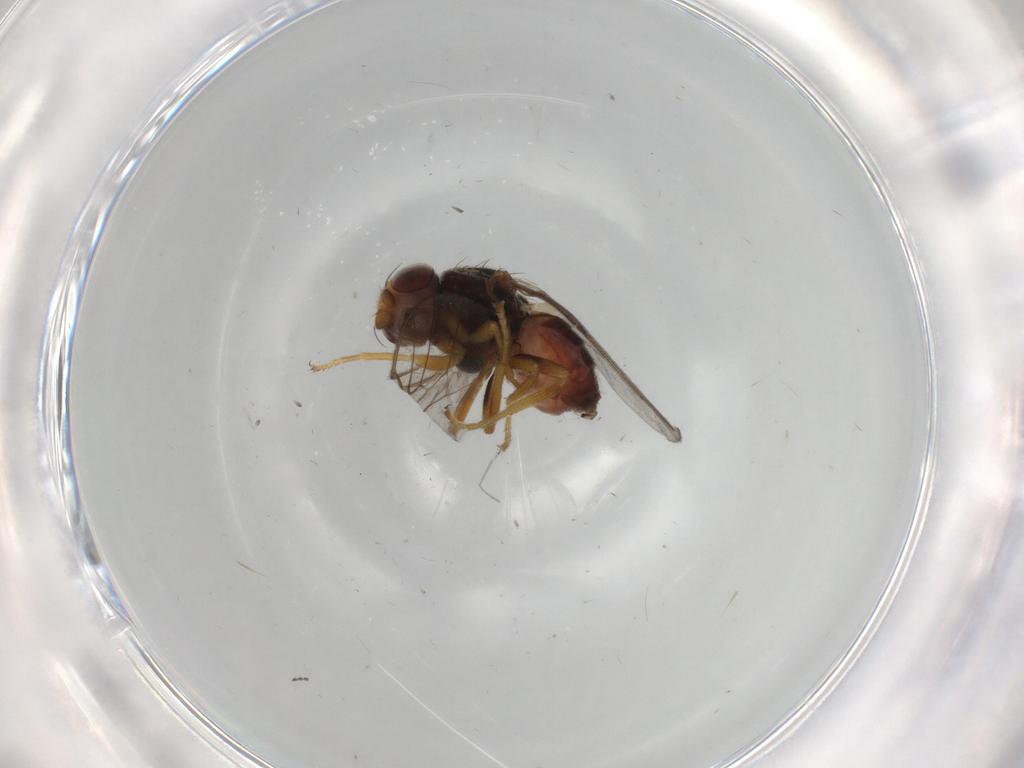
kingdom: Animalia
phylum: Arthropoda
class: Insecta
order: Diptera
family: Chloropidae
